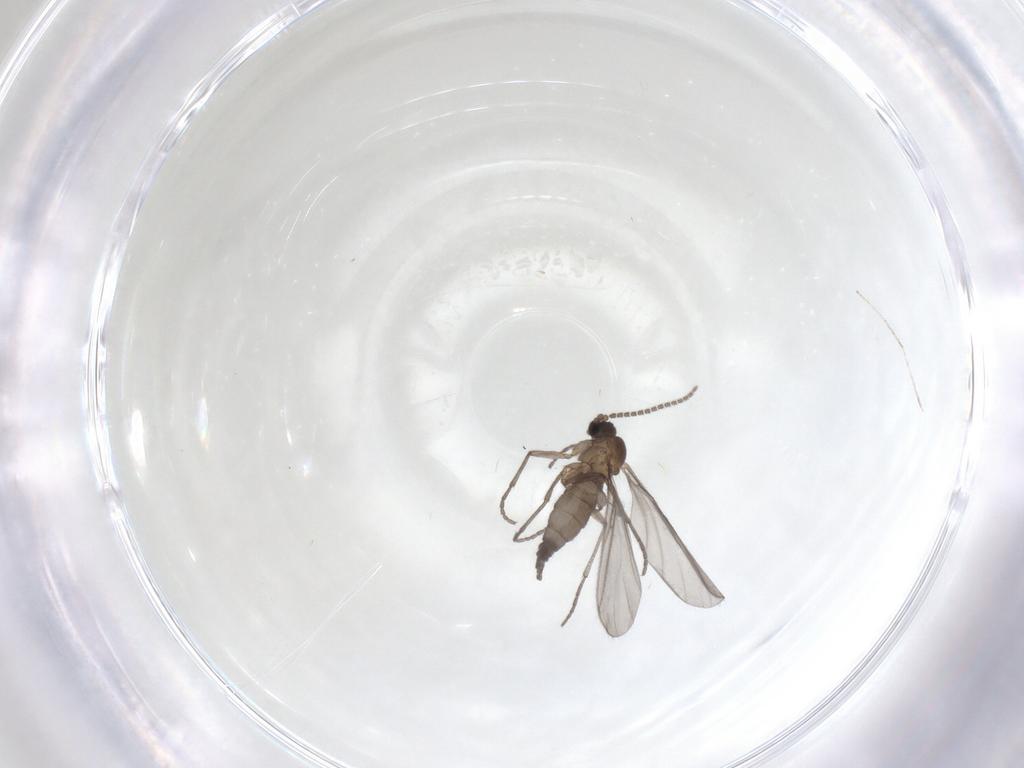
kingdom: Animalia
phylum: Arthropoda
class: Insecta
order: Diptera
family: Sciaridae
